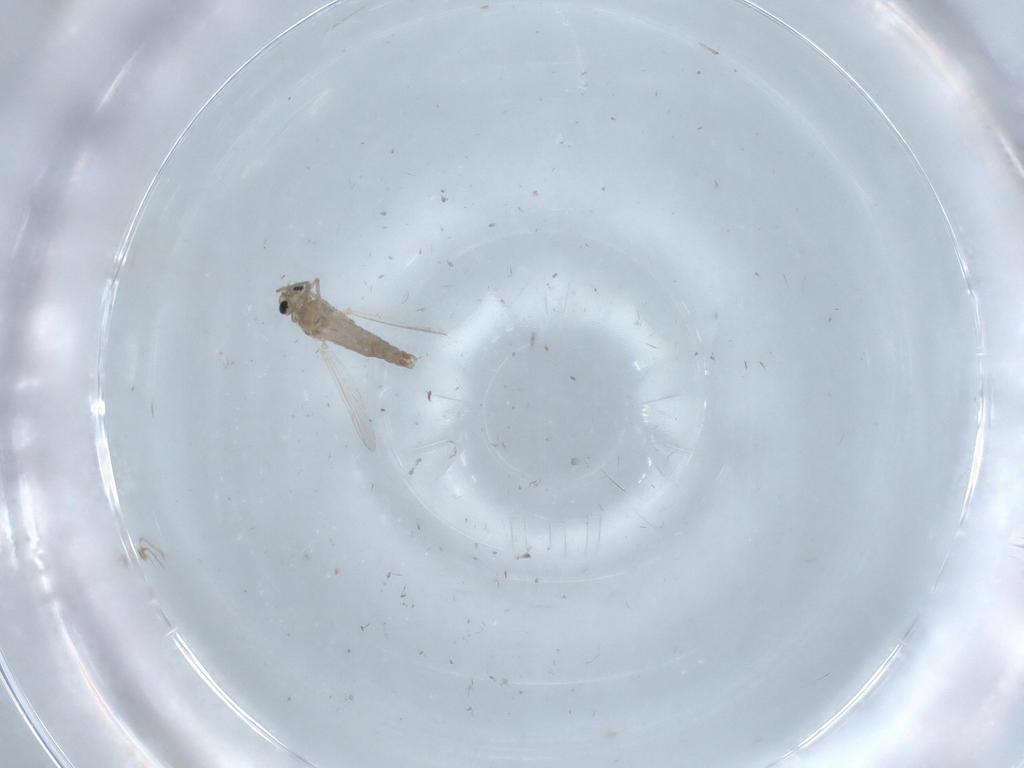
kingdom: Animalia
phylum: Arthropoda
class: Insecta
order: Diptera
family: Chironomidae
